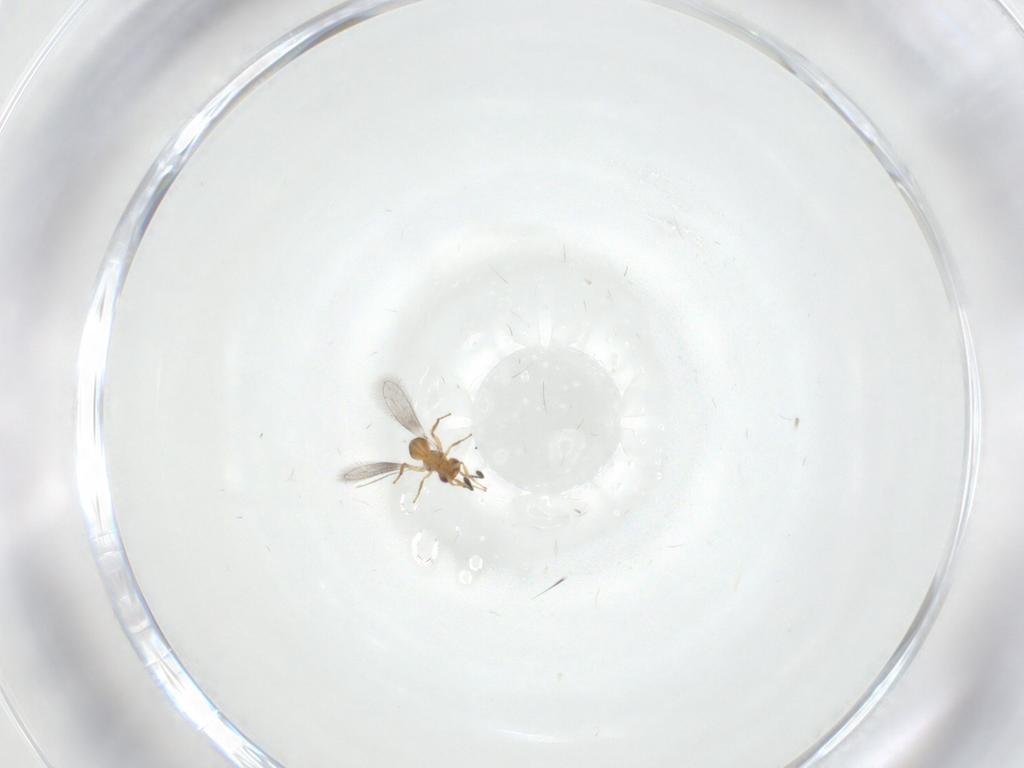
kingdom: Animalia
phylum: Arthropoda
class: Insecta
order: Hymenoptera
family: Mymaridae
